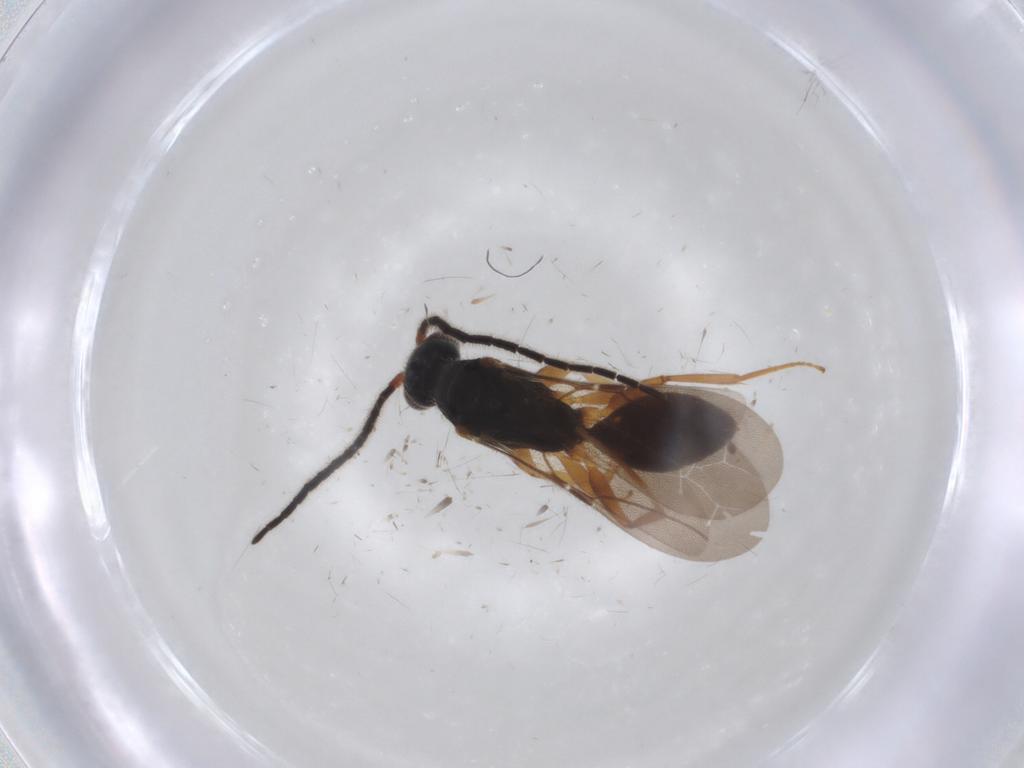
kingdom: Animalia
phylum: Arthropoda
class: Insecta
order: Hymenoptera
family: Bethylidae
